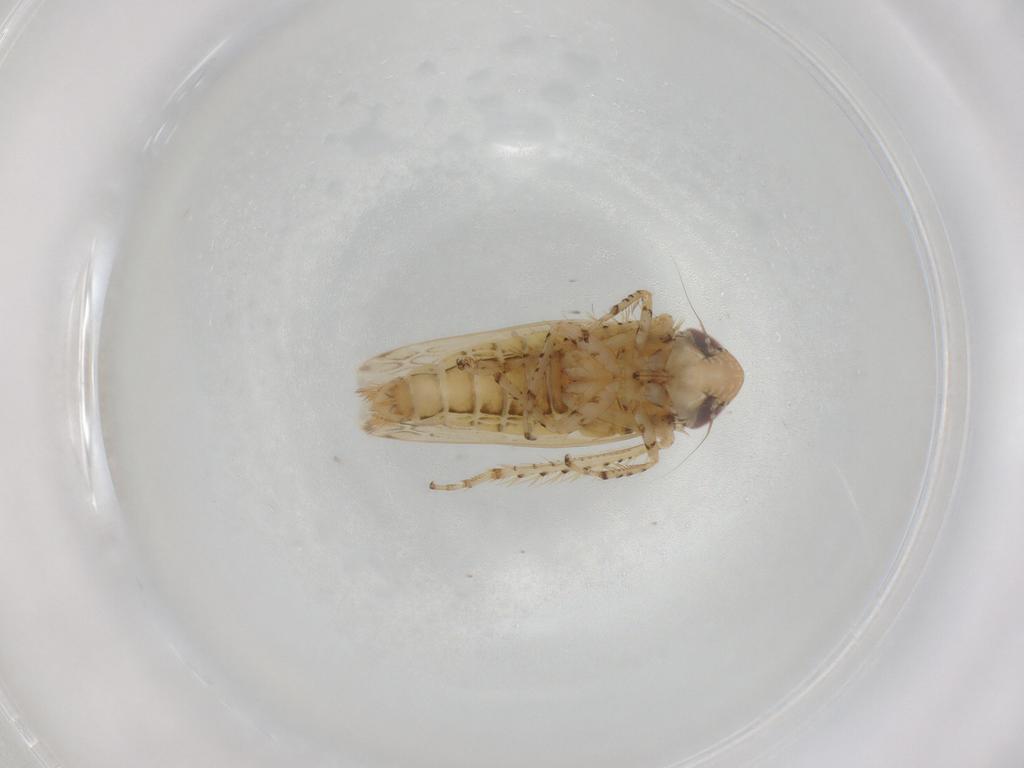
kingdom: Animalia
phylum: Arthropoda
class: Insecta
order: Hemiptera
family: Cicadellidae
